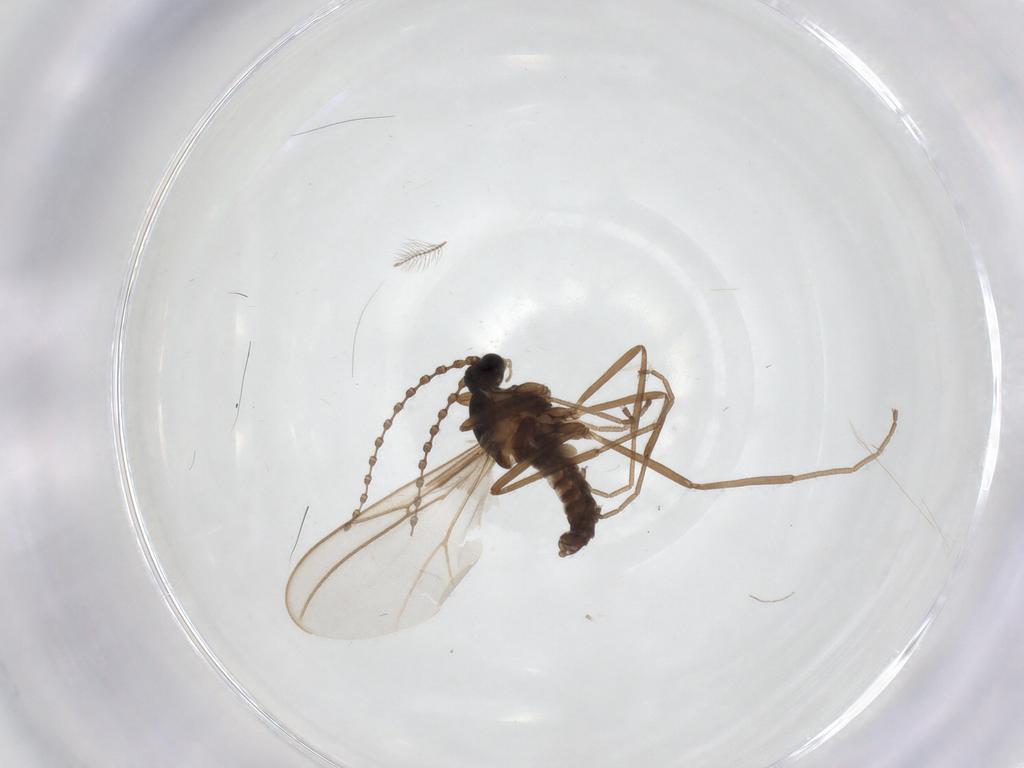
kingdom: Animalia
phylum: Arthropoda
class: Insecta
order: Diptera
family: Cecidomyiidae
